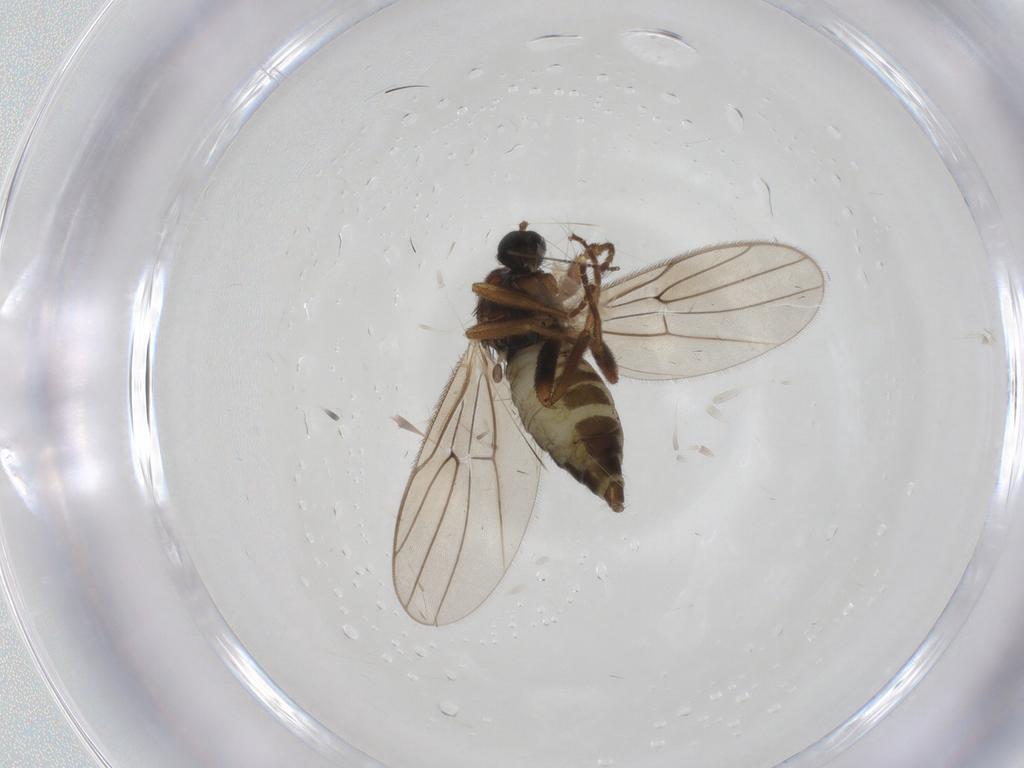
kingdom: Animalia
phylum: Arthropoda
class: Insecta
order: Diptera
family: Hybotidae
